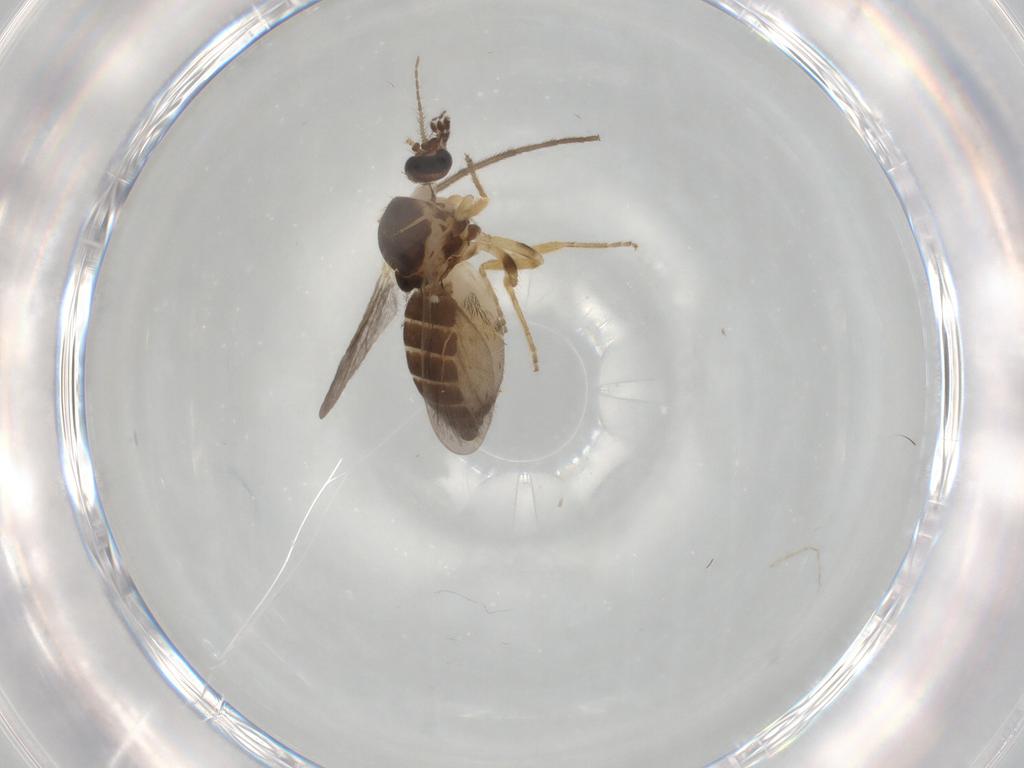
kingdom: Animalia
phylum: Arthropoda
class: Insecta
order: Diptera
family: Ceratopogonidae
